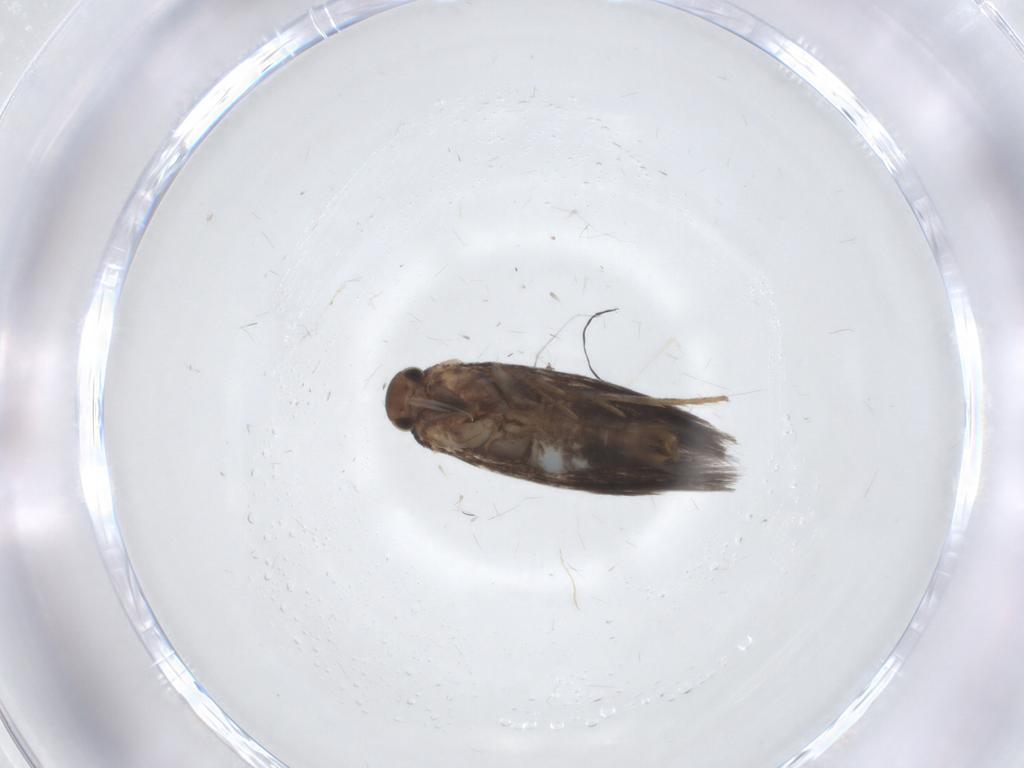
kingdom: Animalia
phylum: Arthropoda
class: Insecta
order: Lepidoptera
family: Elachistidae
